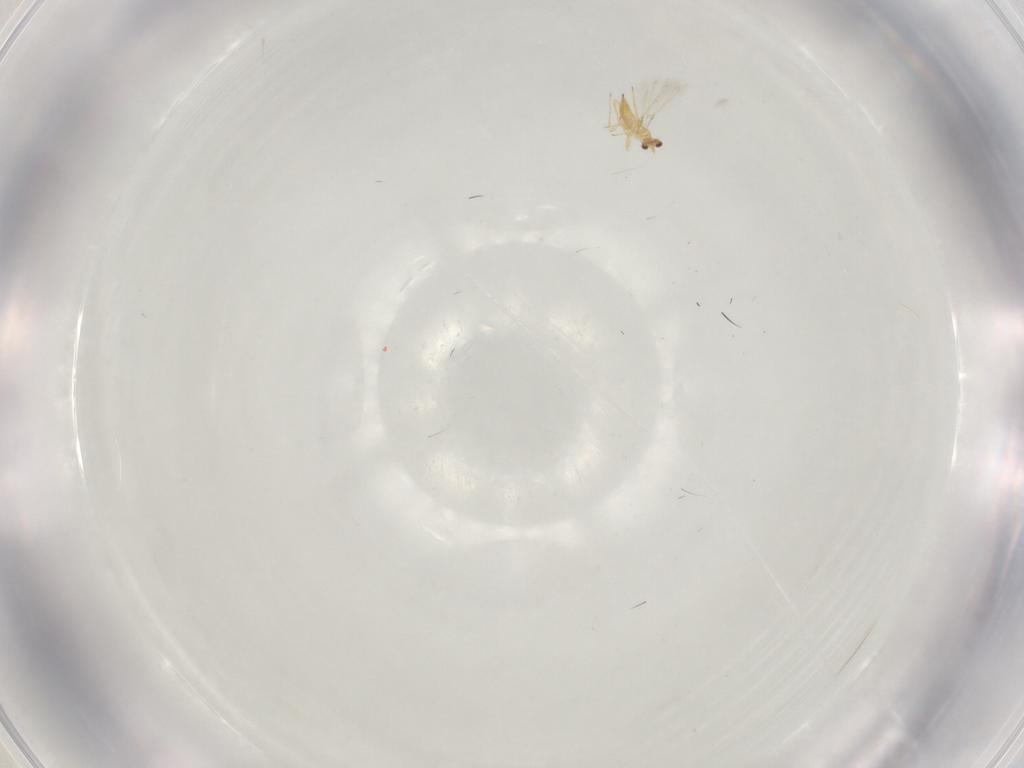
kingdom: Animalia
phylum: Arthropoda
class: Insecta
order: Hymenoptera
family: Mymaridae
